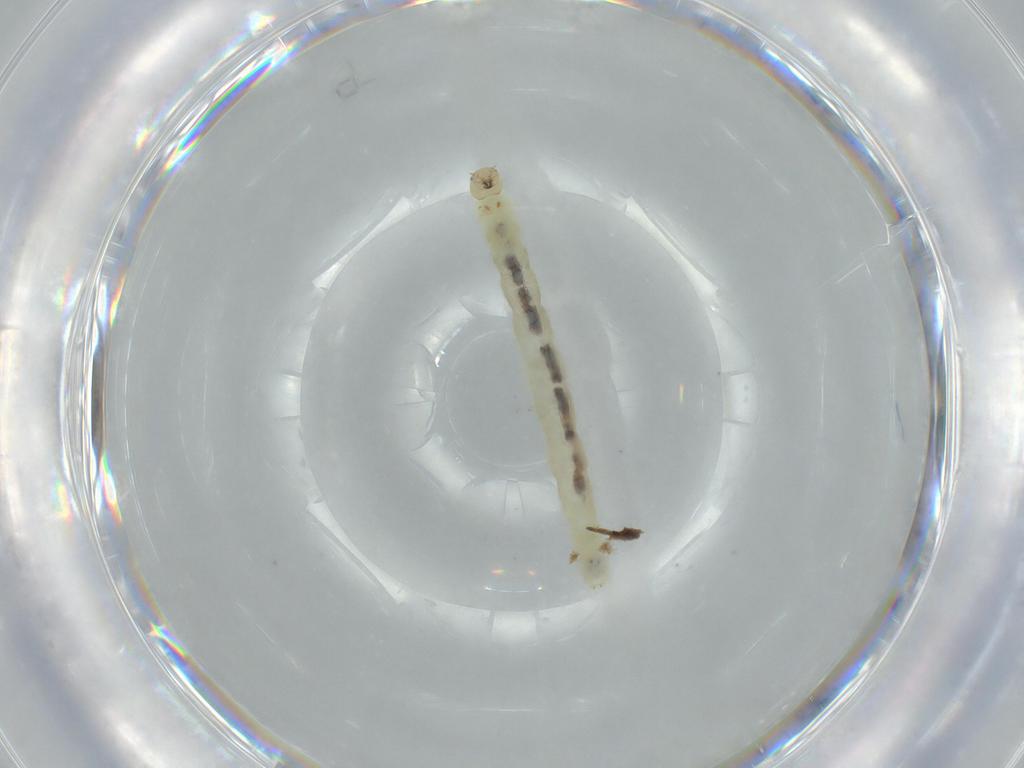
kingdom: Animalia
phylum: Arthropoda
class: Insecta
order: Diptera
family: Chironomidae
